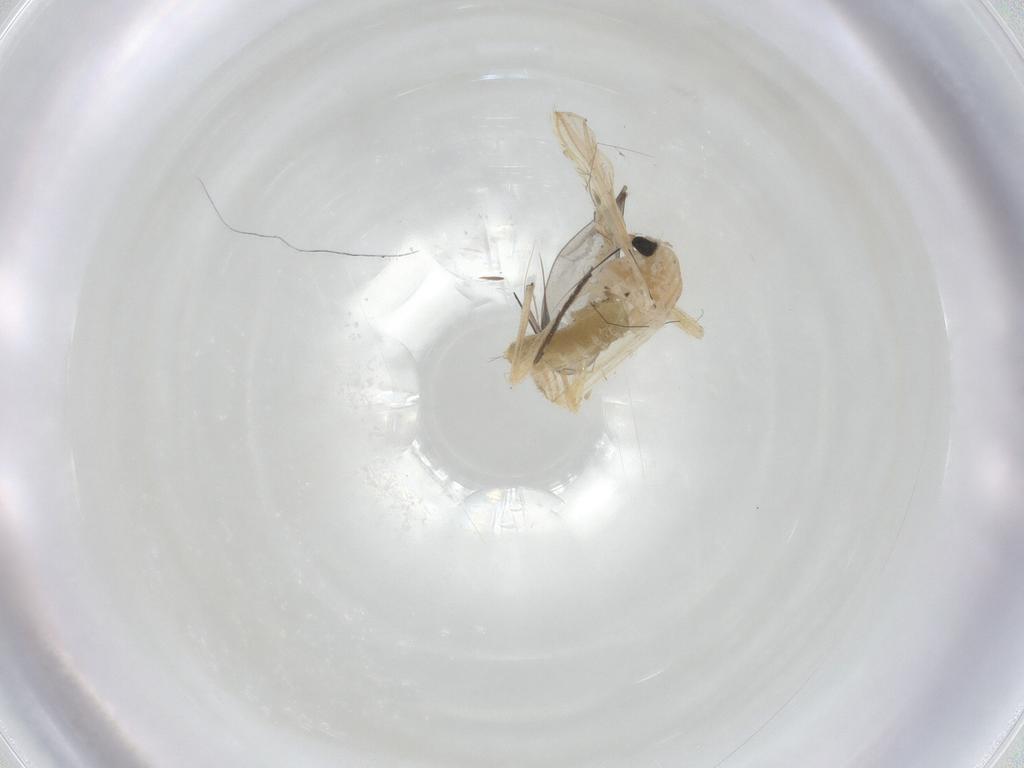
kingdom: Animalia
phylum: Arthropoda
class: Insecta
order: Diptera
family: Chironomidae
